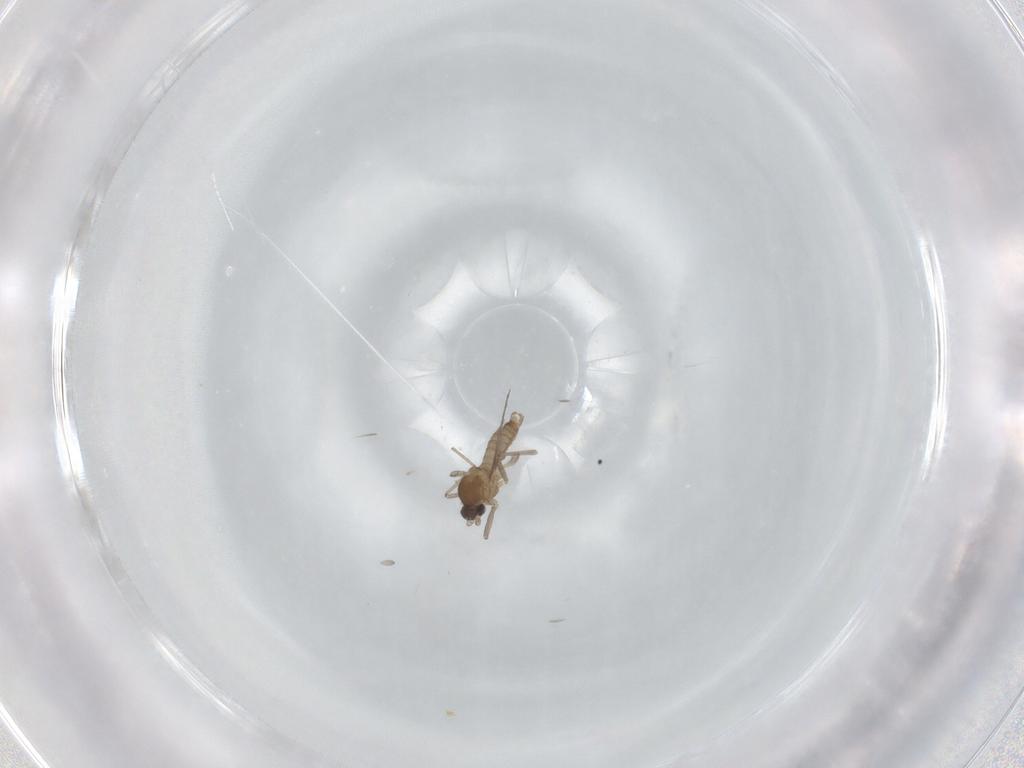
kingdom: Animalia
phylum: Arthropoda
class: Insecta
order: Diptera
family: Cecidomyiidae
